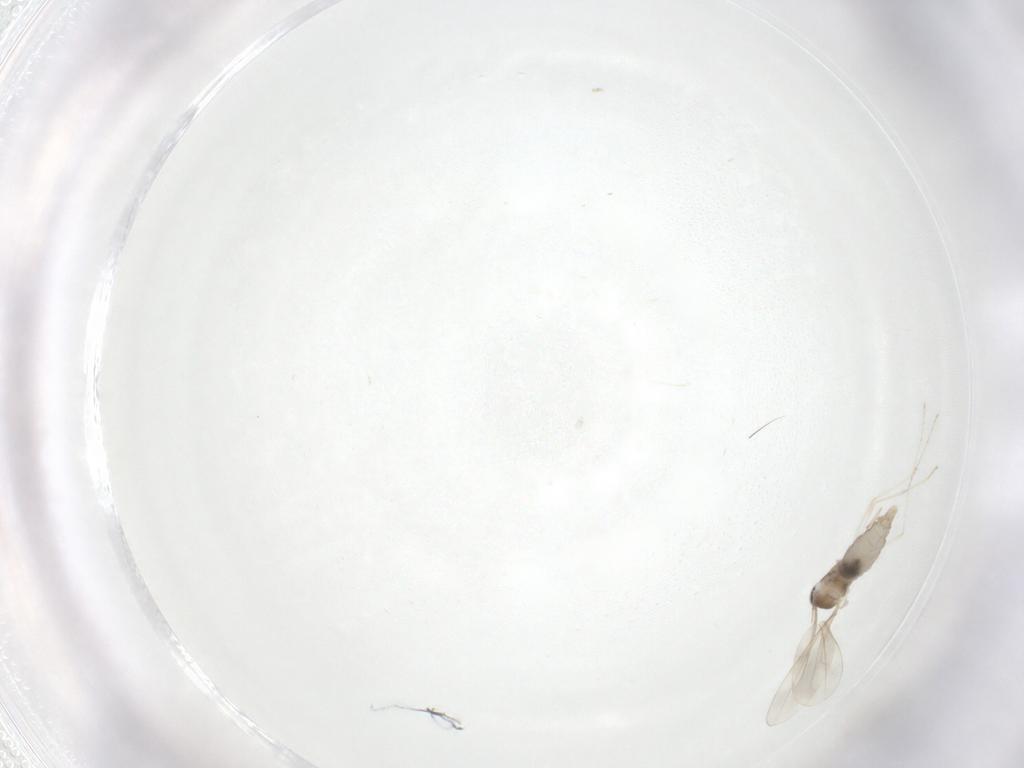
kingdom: Animalia
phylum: Arthropoda
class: Insecta
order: Diptera
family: Cecidomyiidae
